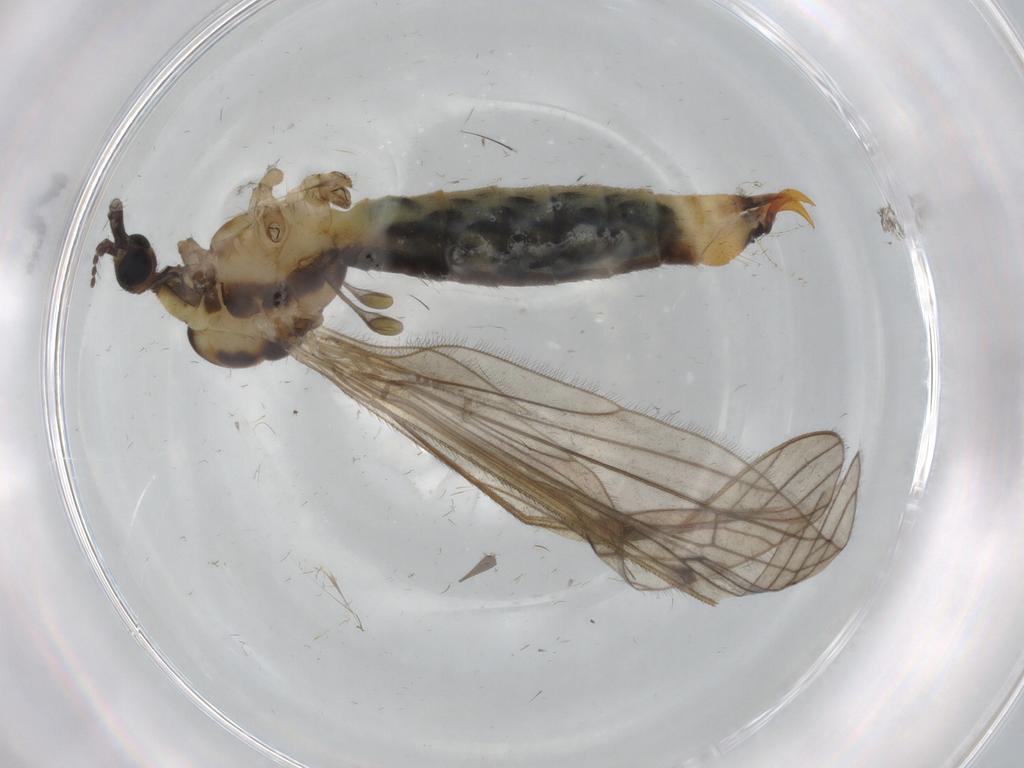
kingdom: Animalia
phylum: Arthropoda
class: Insecta
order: Diptera
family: Limoniidae
